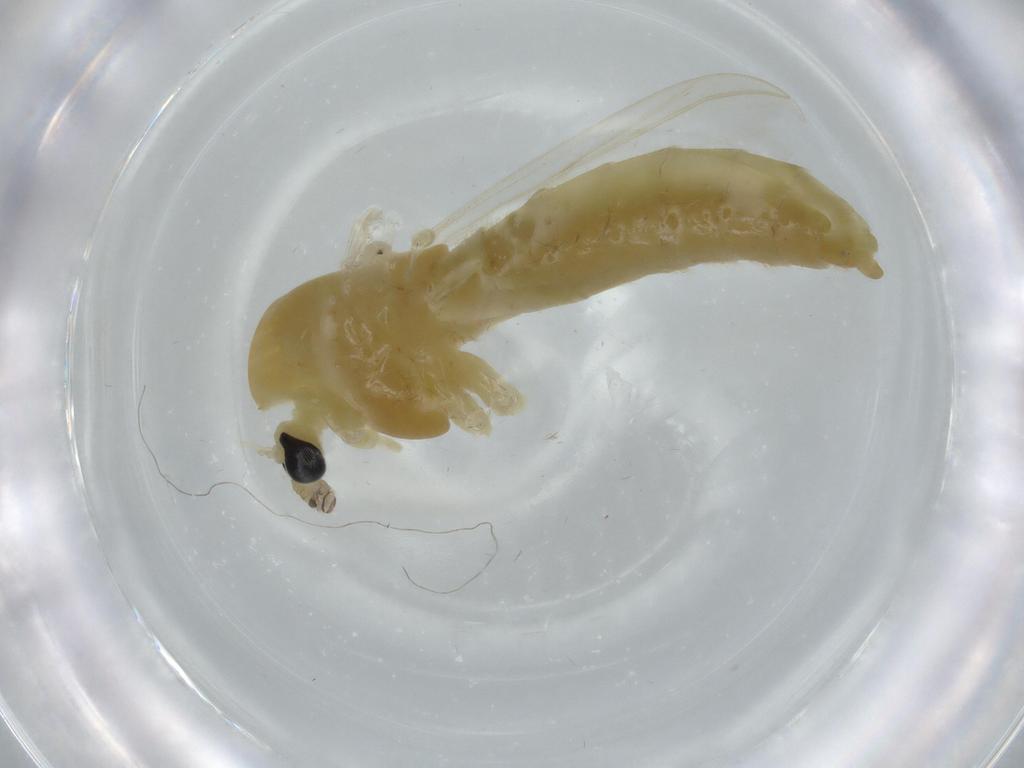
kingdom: Animalia
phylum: Arthropoda
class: Insecta
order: Diptera
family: Chironomidae
